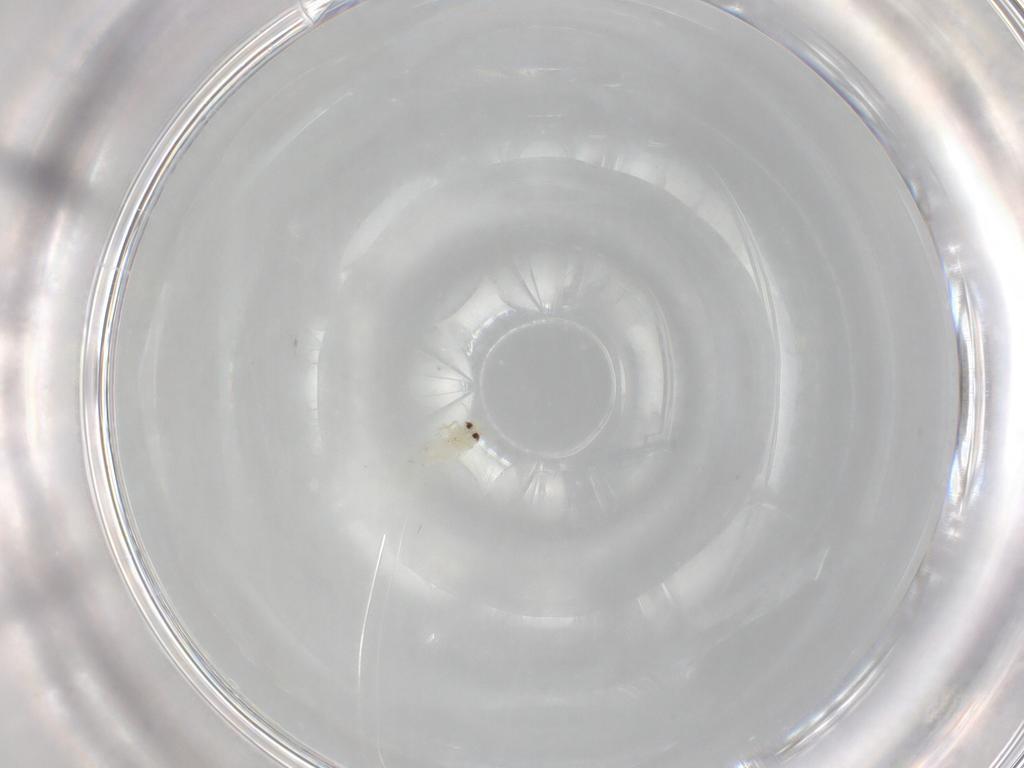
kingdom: Animalia
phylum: Arthropoda
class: Insecta
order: Hemiptera
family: Aleyrodidae
